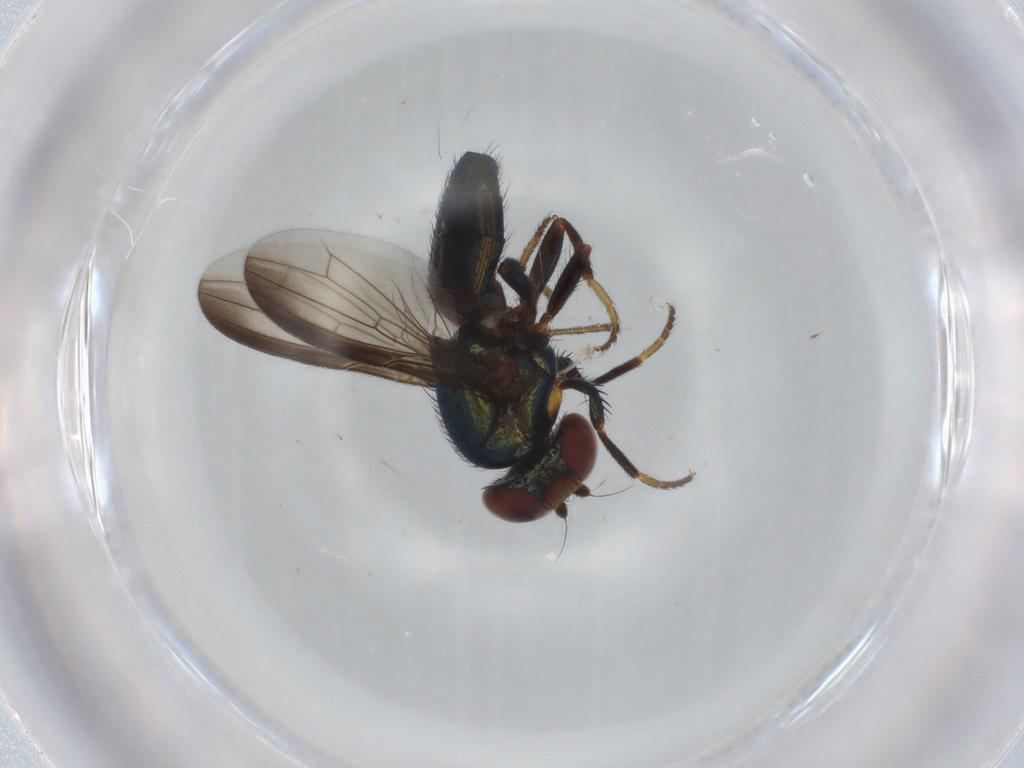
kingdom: Animalia
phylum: Arthropoda
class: Insecta
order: Diptera
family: Ulidiidae
